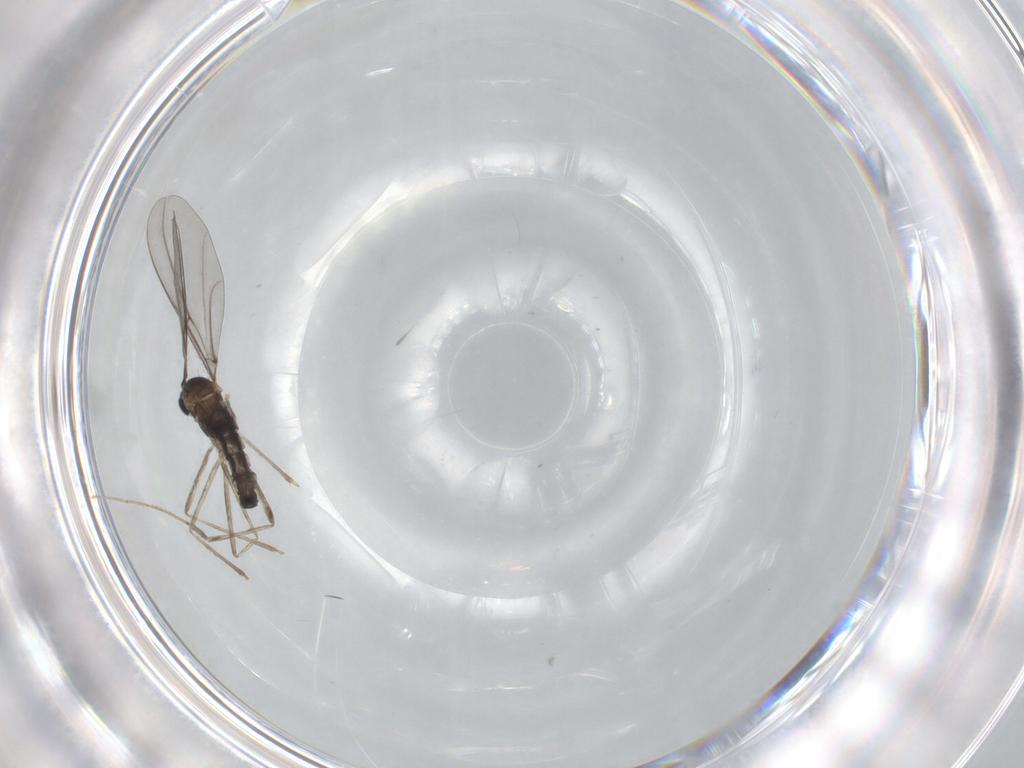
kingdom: Animalia
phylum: Arthropoda
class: Insecta
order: Diptera
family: Cecidomyiidae
